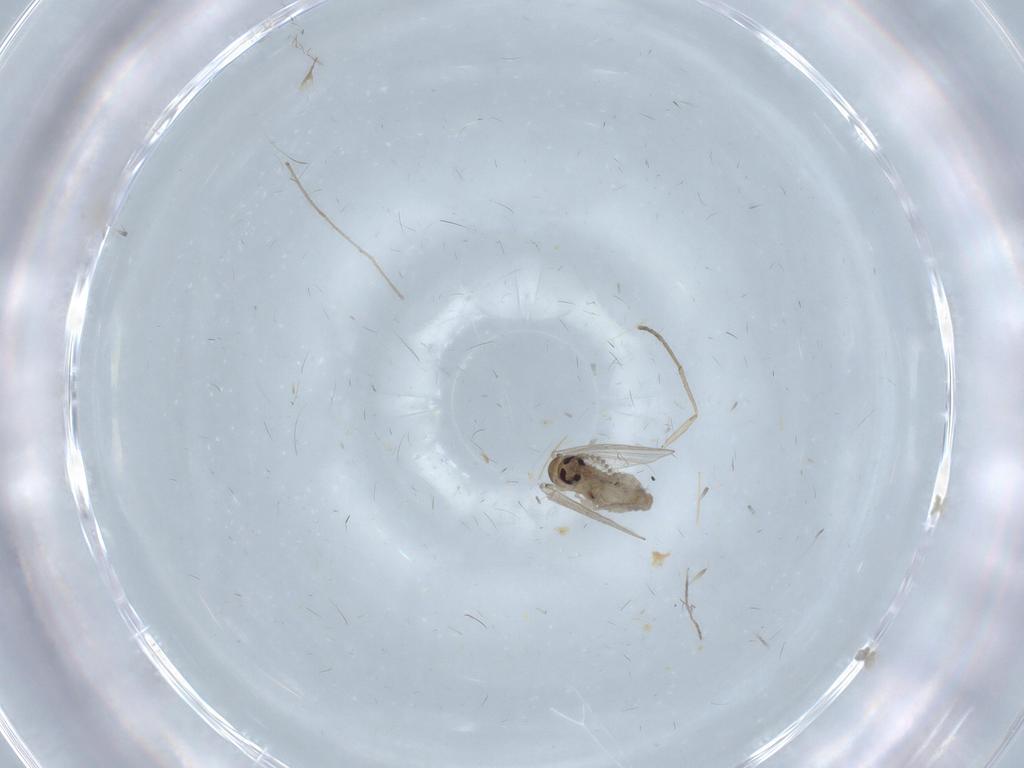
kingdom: Animalia
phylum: Arthropoda
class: Insecta
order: Diptera
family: Psychodidae
